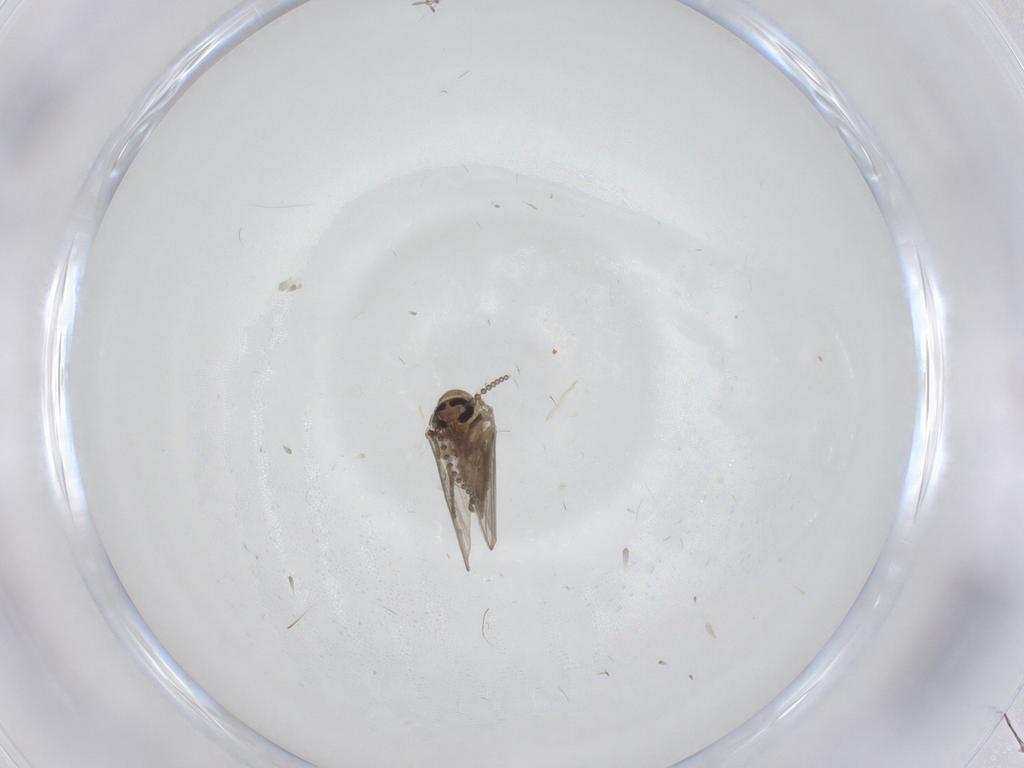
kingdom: Animalia
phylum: Arthropoda
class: Insecta
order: Diptera
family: Psychodidae
